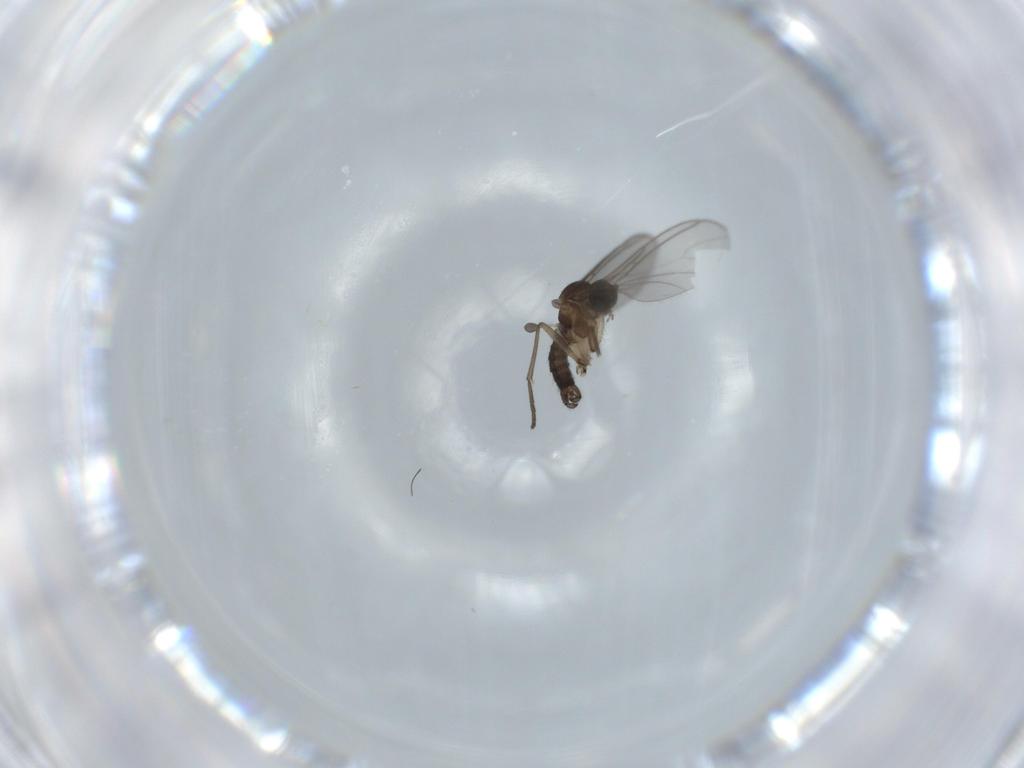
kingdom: Animalia
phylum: Arthropoda
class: Insecta
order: Diptera
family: Sciaridae
